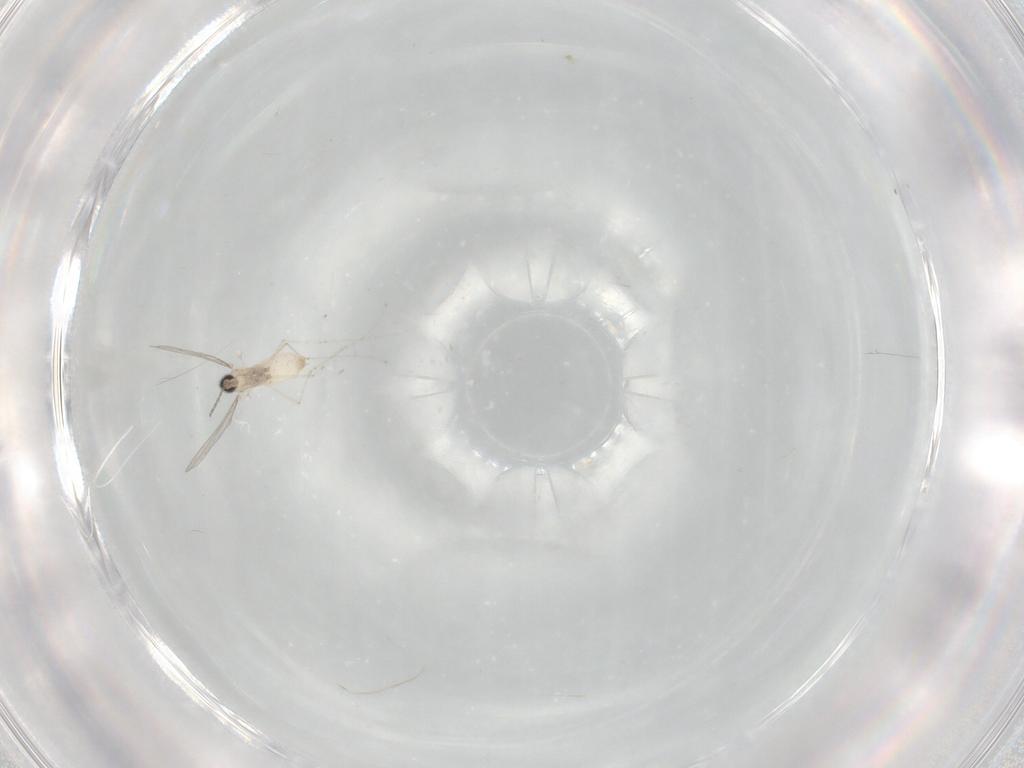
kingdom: Animalia
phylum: Arthropoda
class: Insecta
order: Diptera
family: Cecidomyiidae
